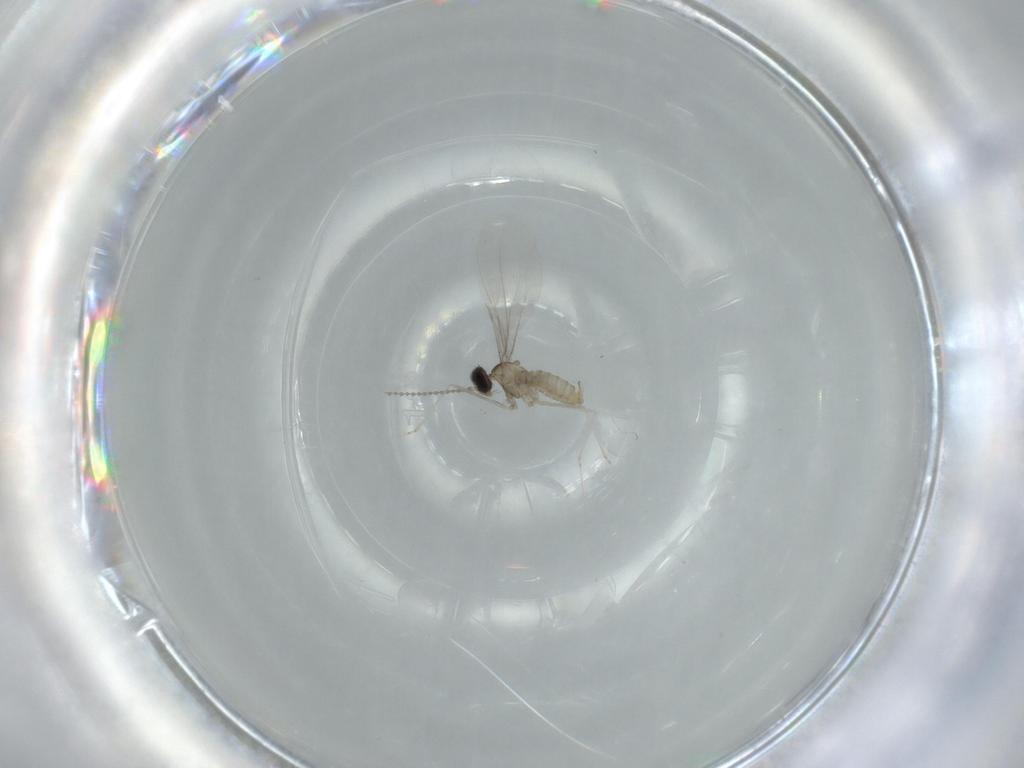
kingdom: Animalia
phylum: Arthropoda
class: Insecta
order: Diptera
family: Cecidomyiidae
